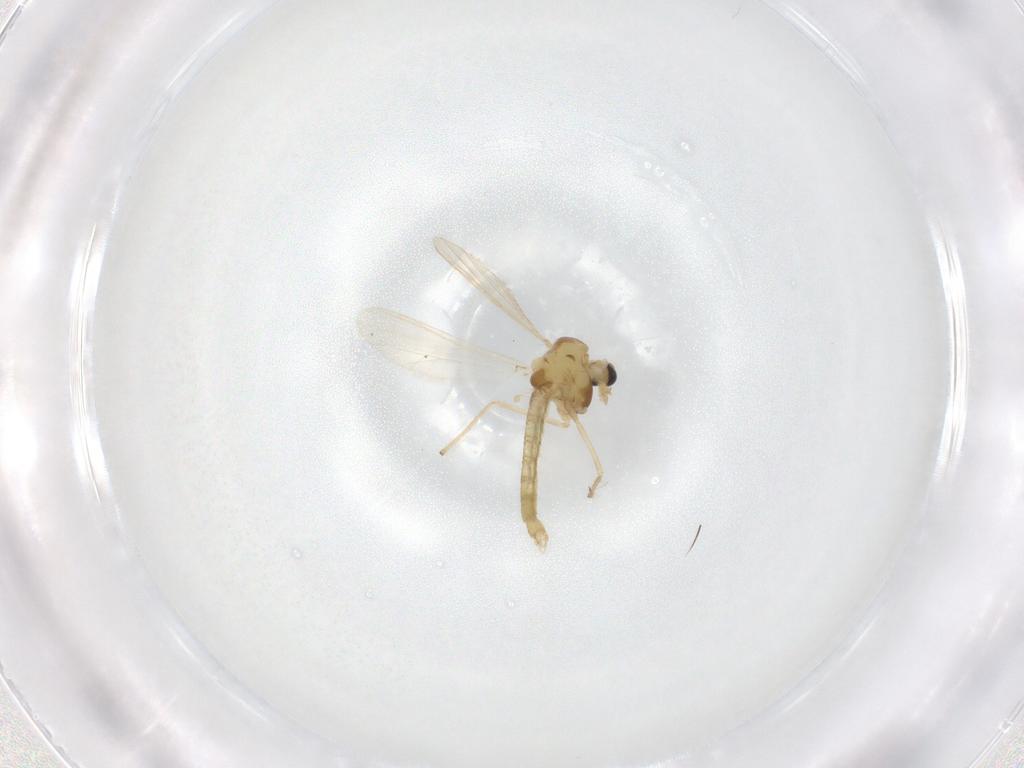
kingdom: Animalia
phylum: Arthropoda
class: Insecta
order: Diptera
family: Chironomidae
